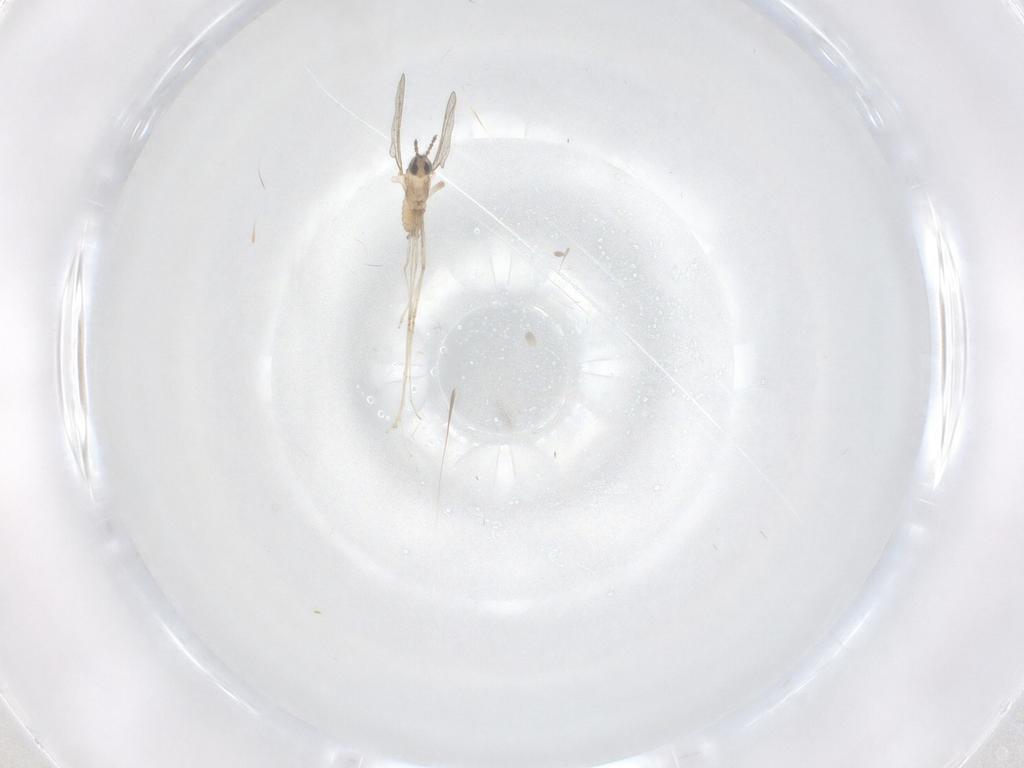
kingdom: Animalia
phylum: Arthropoda
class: Insecta
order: Diptera
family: Cecidomyiidae
